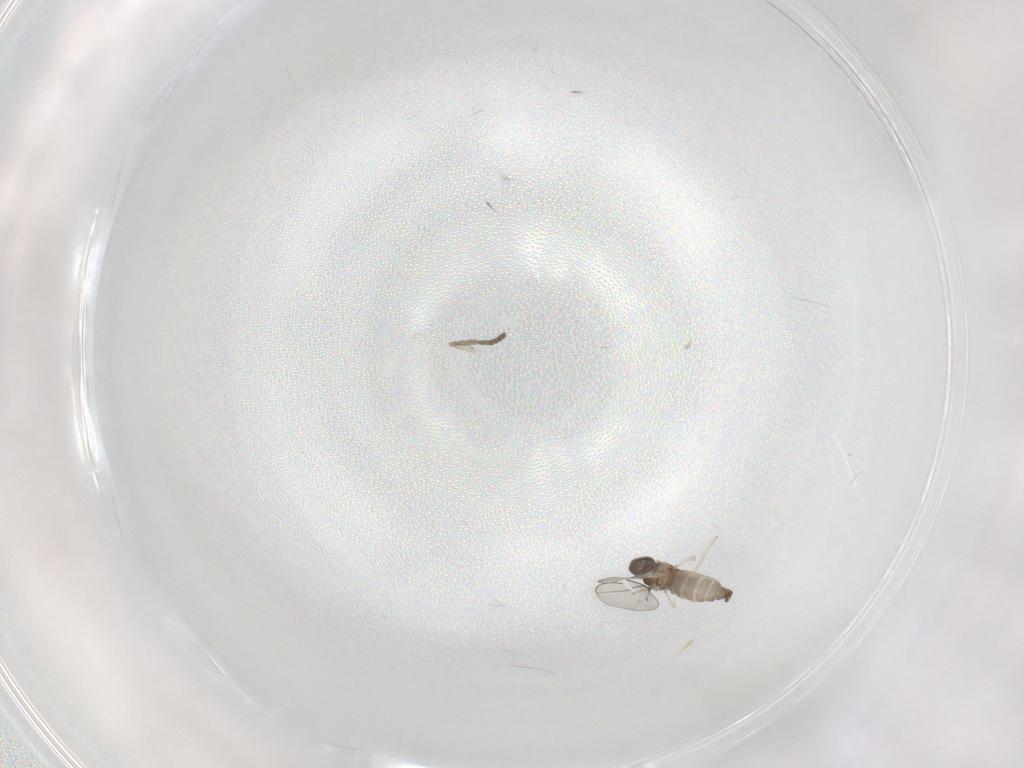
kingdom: Animalia
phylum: Arthropoda
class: Insecta
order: Diptera
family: Cecidomyiidae
